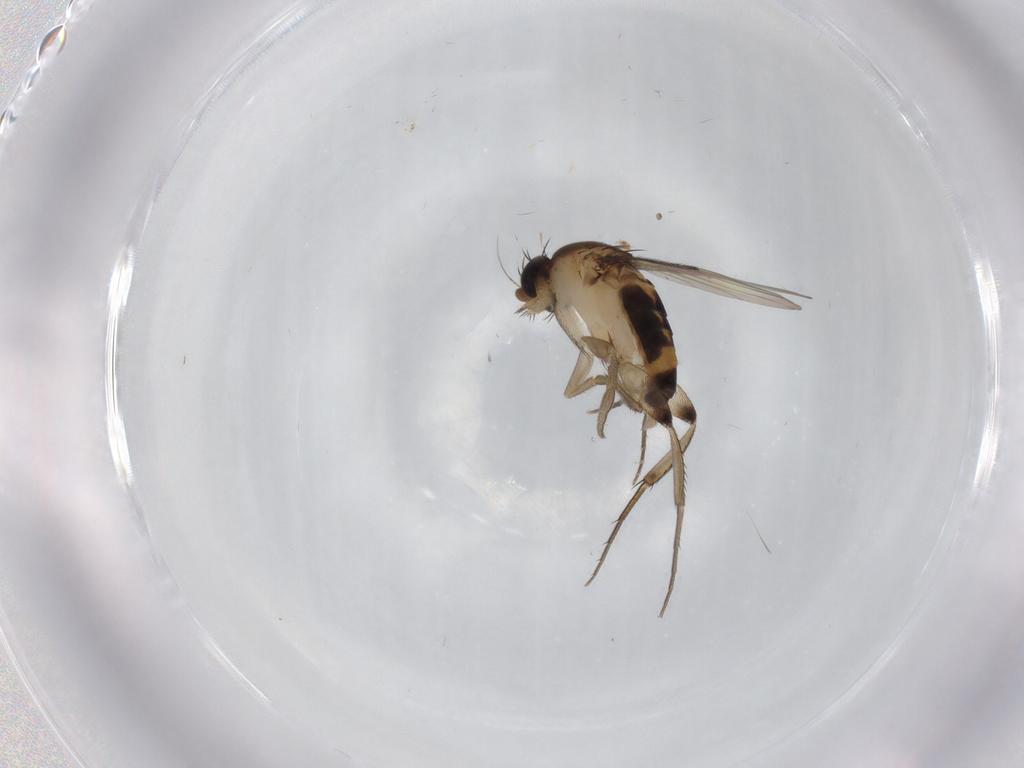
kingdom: Animalia
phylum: Arthropoda
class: Insecta
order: Diptera
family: Phoridae
